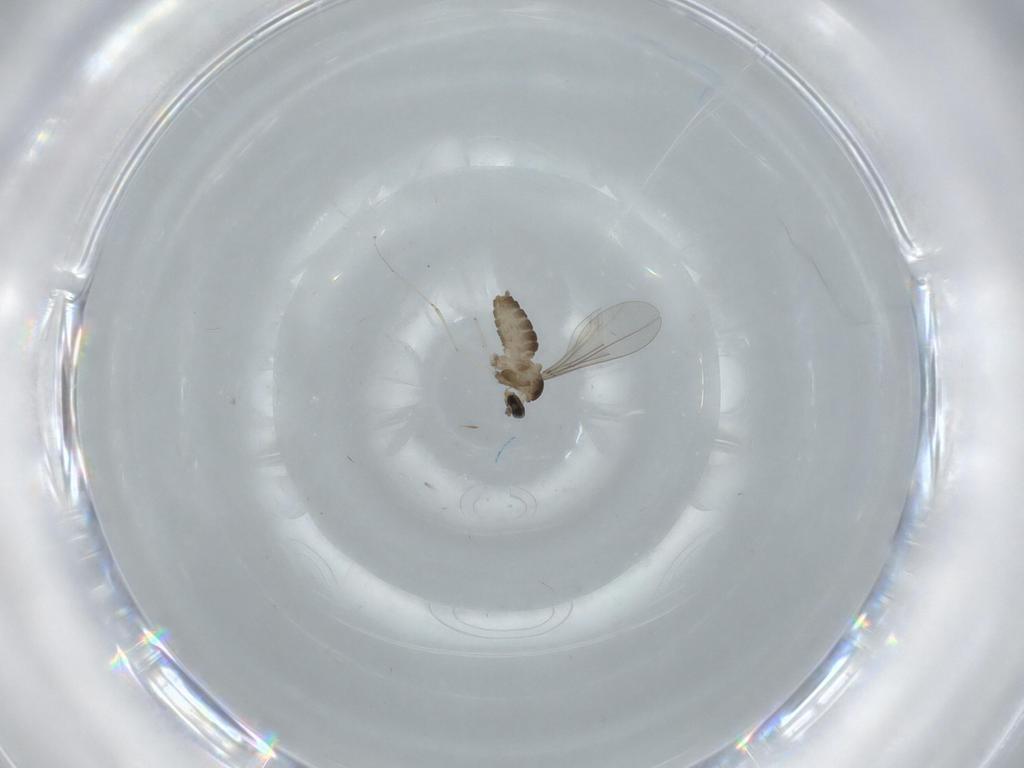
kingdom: Animalia
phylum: Arthropoda
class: Insecta
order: Diptera
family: Cecidomyiidae
